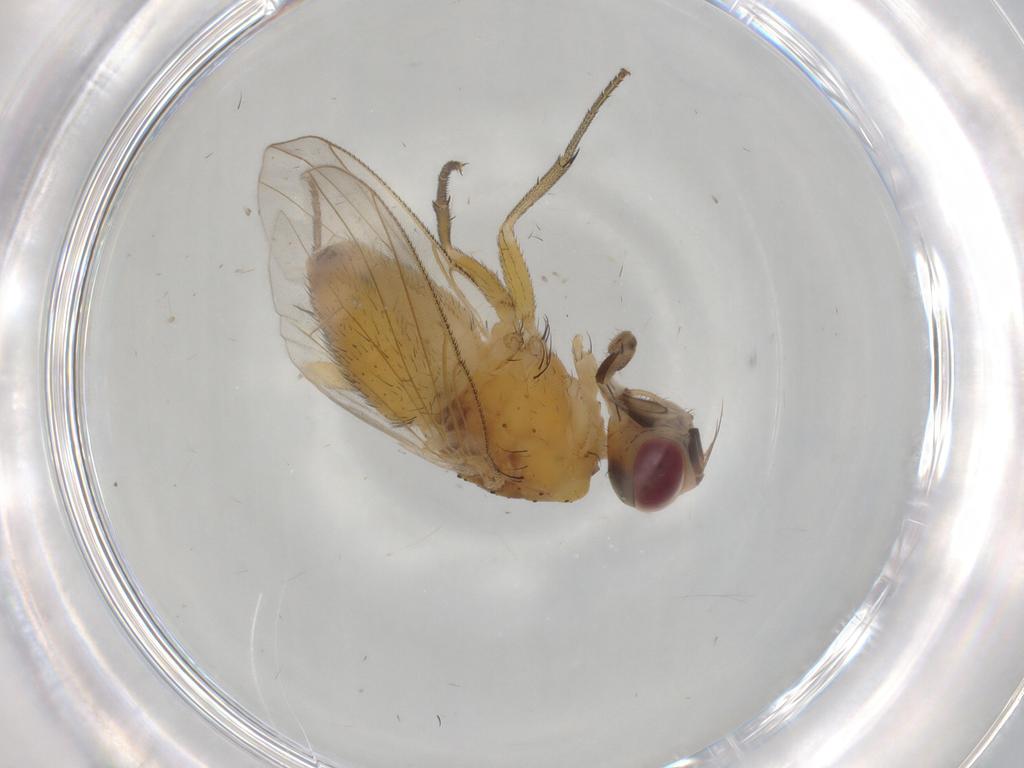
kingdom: Animalia
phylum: Arthropoda
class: Insecta
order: Diptera
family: Muscidae
